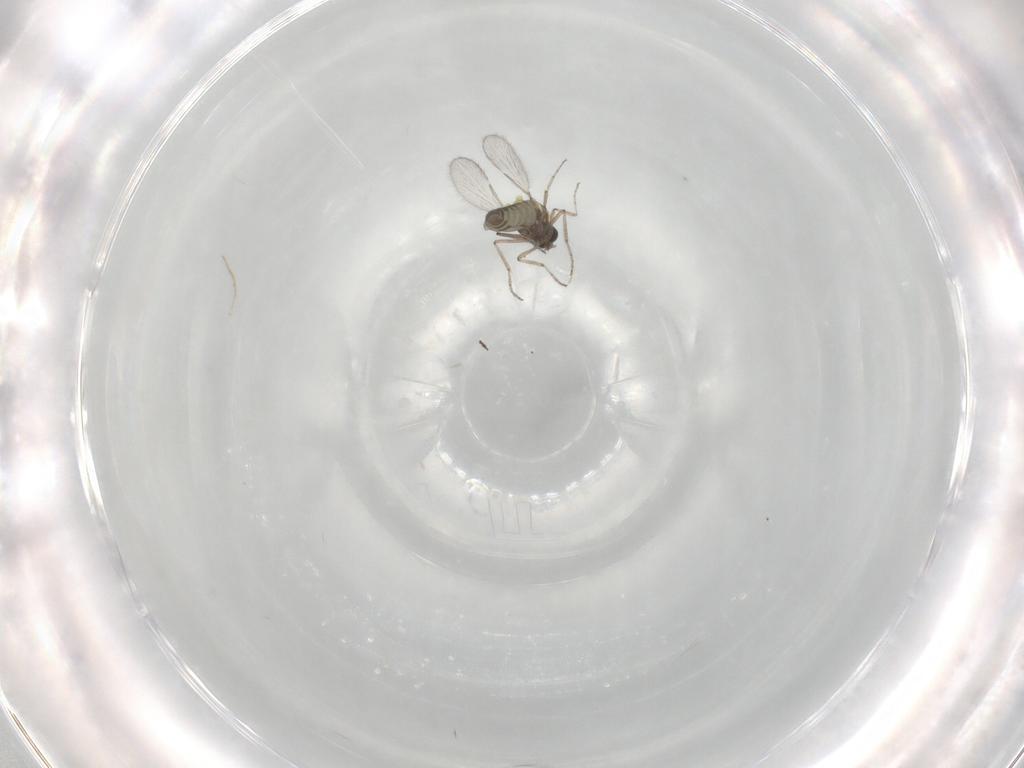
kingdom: Animalia
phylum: Arthropoda
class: Insecta
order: Diptera
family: Ceratopogonidae
